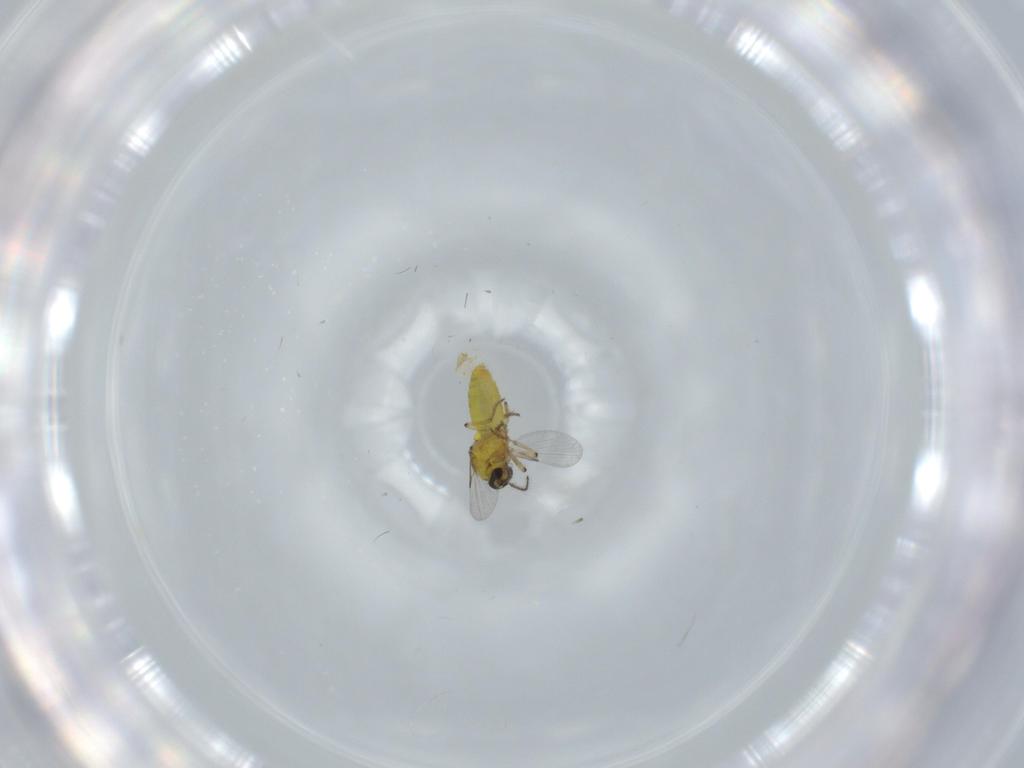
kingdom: Animalia
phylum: Arthropoda
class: Insecta
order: Diptera
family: Ceratopogonidae
